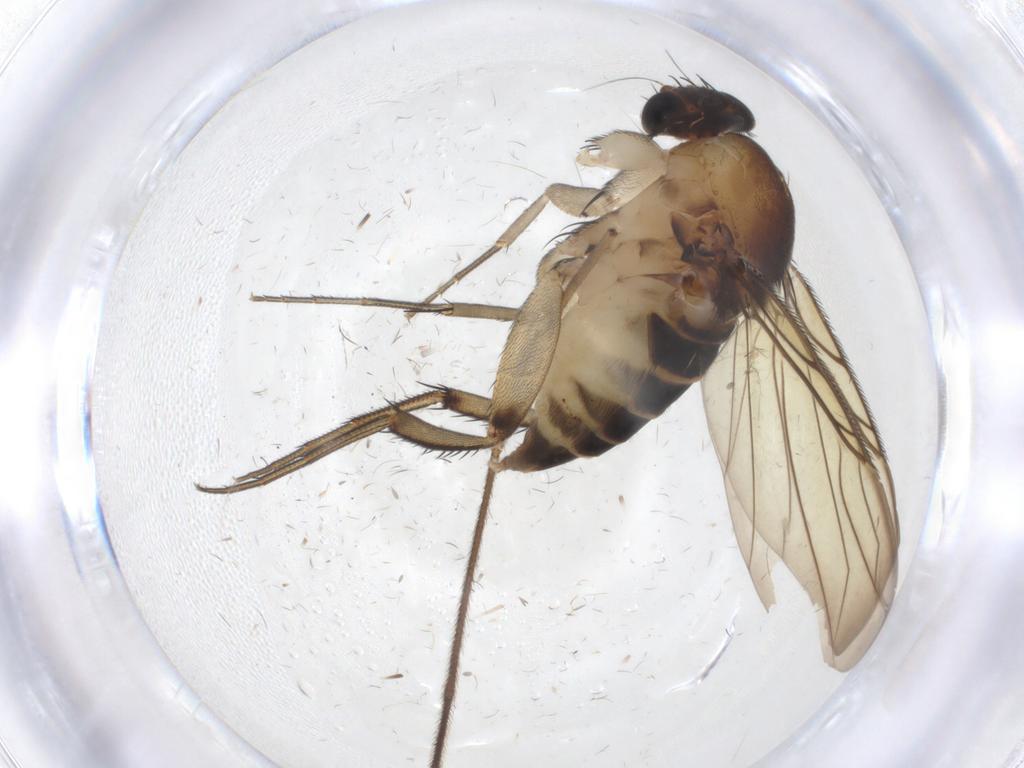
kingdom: Animalia
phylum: Arthropoda
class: Insecta
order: Diptera
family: Phoridae
